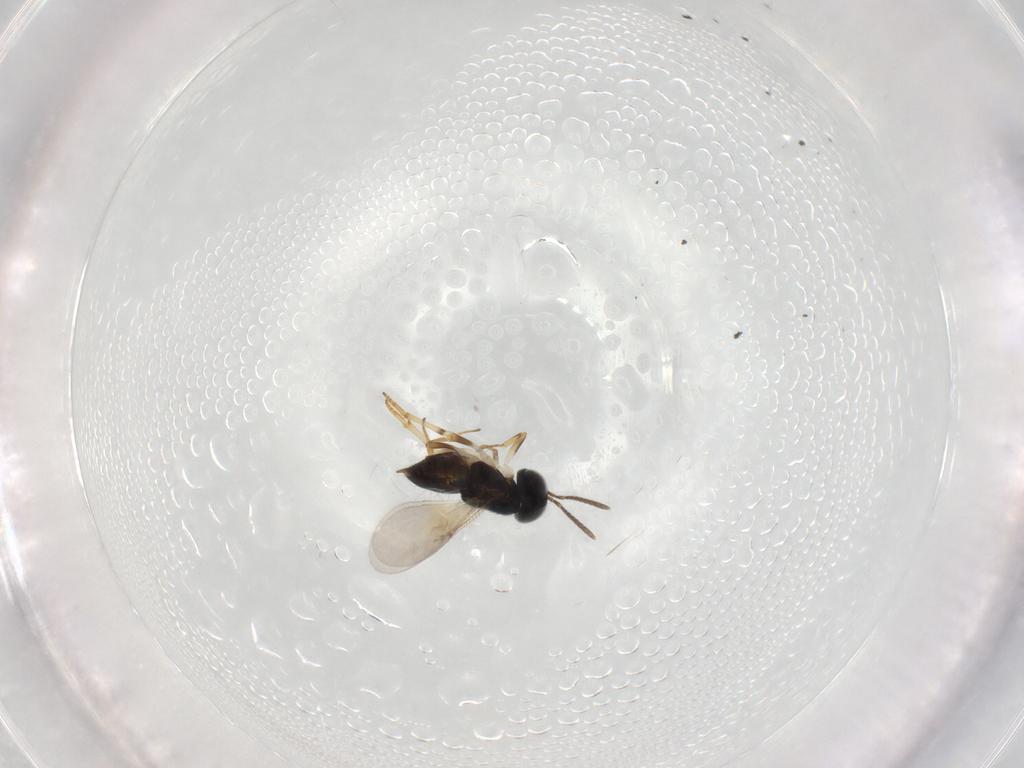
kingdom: Animalia
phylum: Arthropoda
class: Insecta
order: Hymenoptera
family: Encyrtidae
